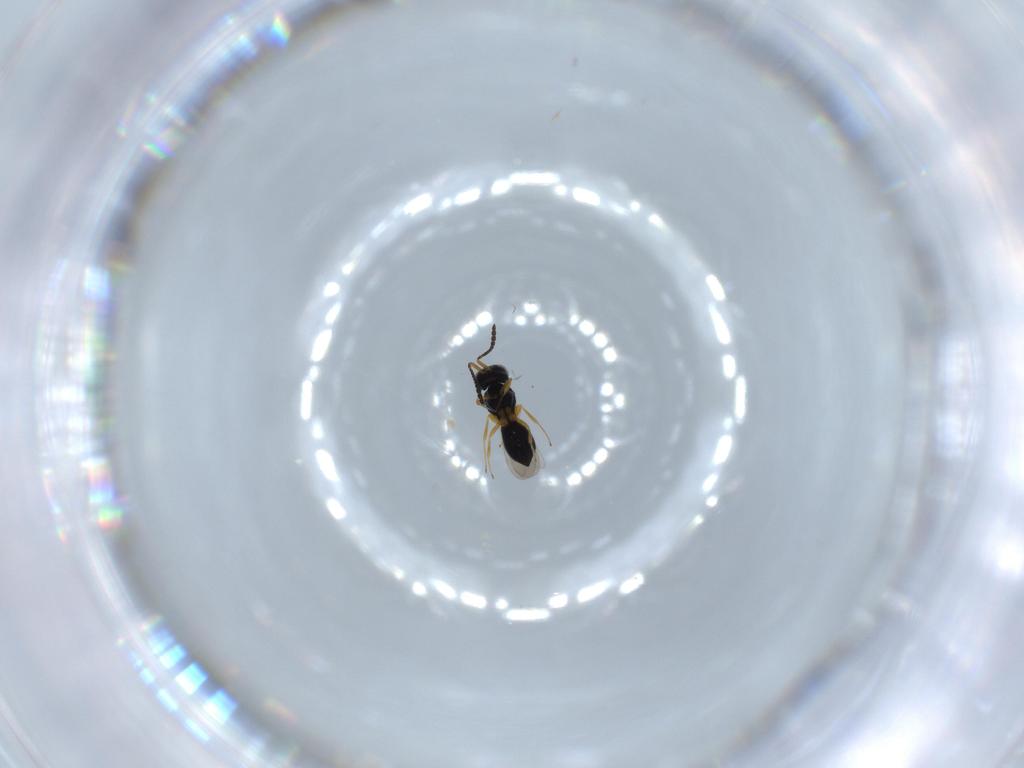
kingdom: Animalia
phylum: Arthropoda
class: Insecta
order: Hymenoptera
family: Scelionidae
